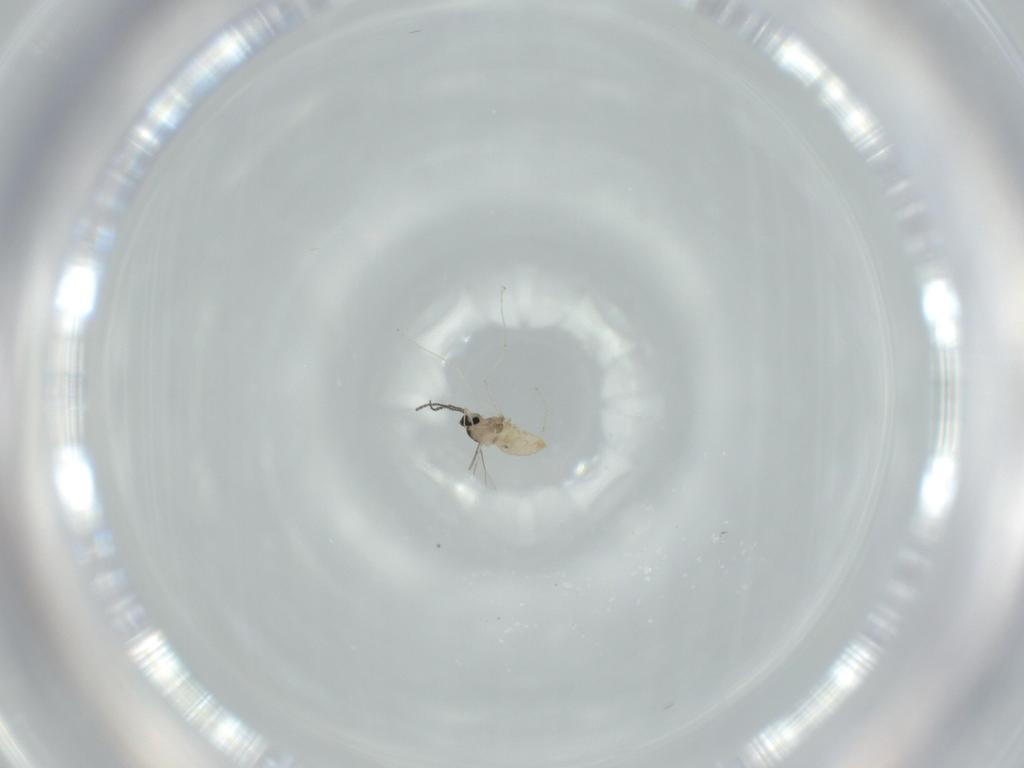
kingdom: Animalia
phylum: Arthropoda
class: Insecta
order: Diptera
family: Cecidomyiidae
